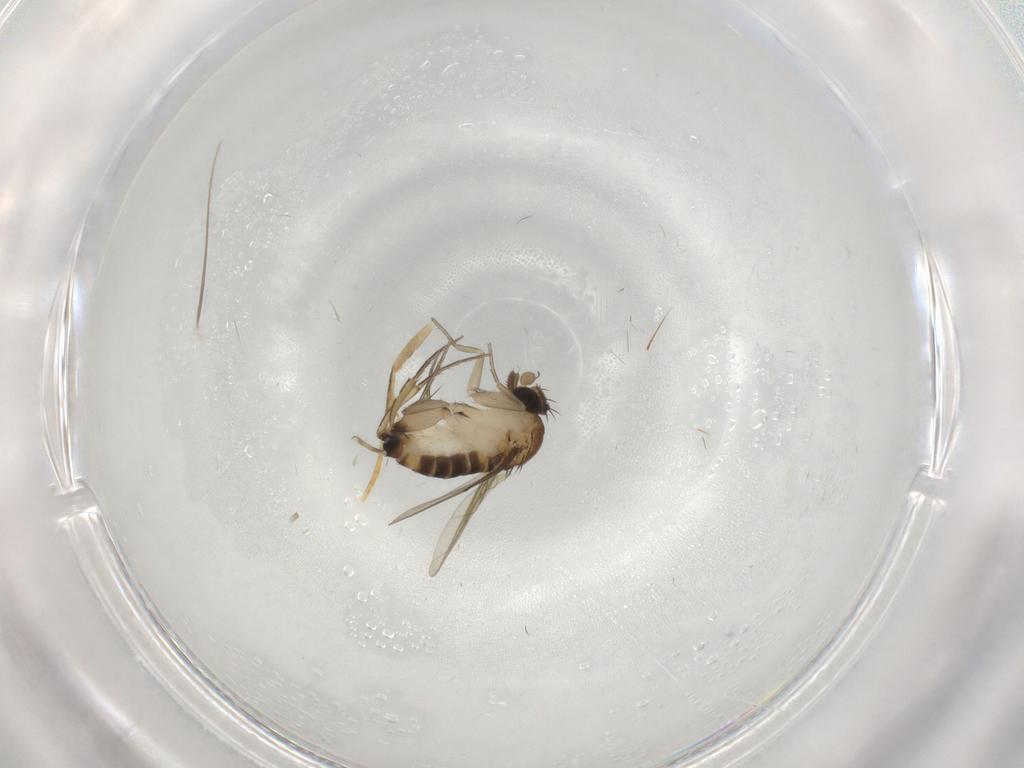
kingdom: Animalia
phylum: Arthropoda
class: Insecta
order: Diptera
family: Phoridae
